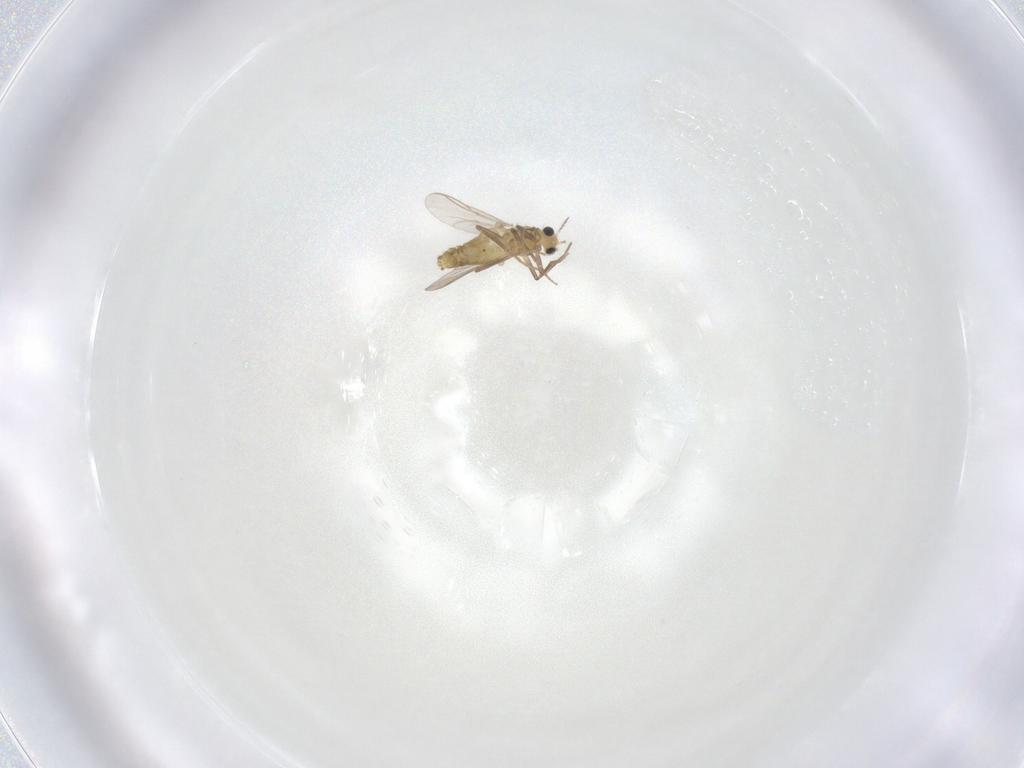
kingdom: Animalia
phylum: Arthropoda
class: Insecta
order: Diptera
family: Chironomidae
